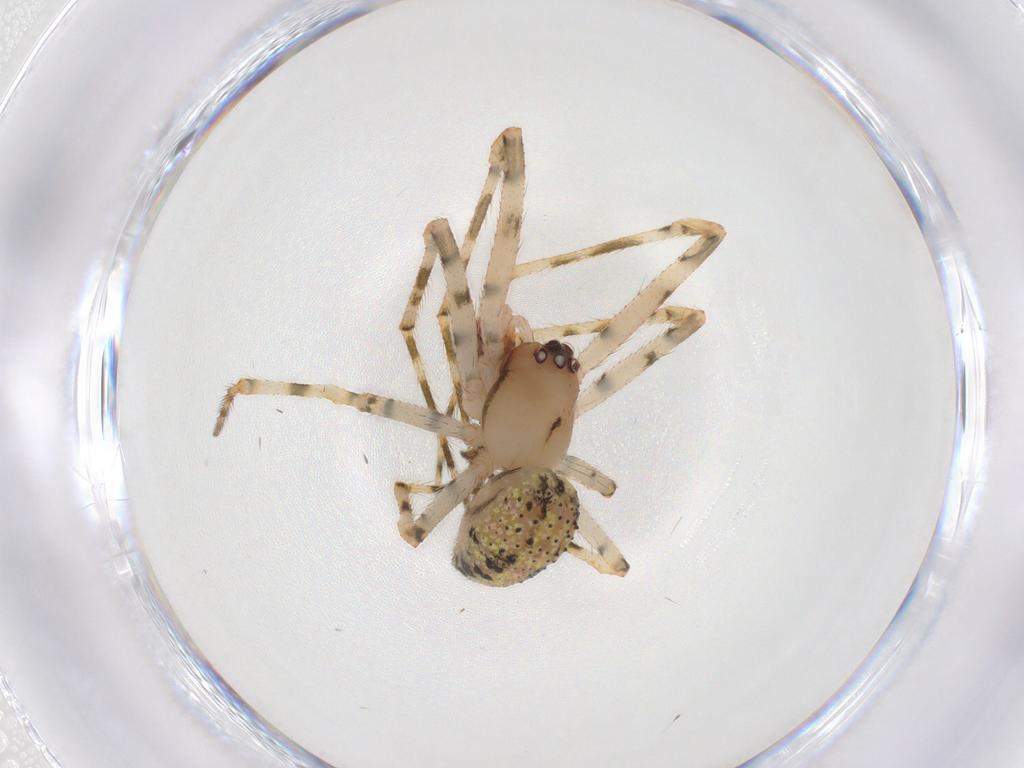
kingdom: Animalia
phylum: Arthropoda
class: Arachnida
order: Araneae
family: Theridiidae
